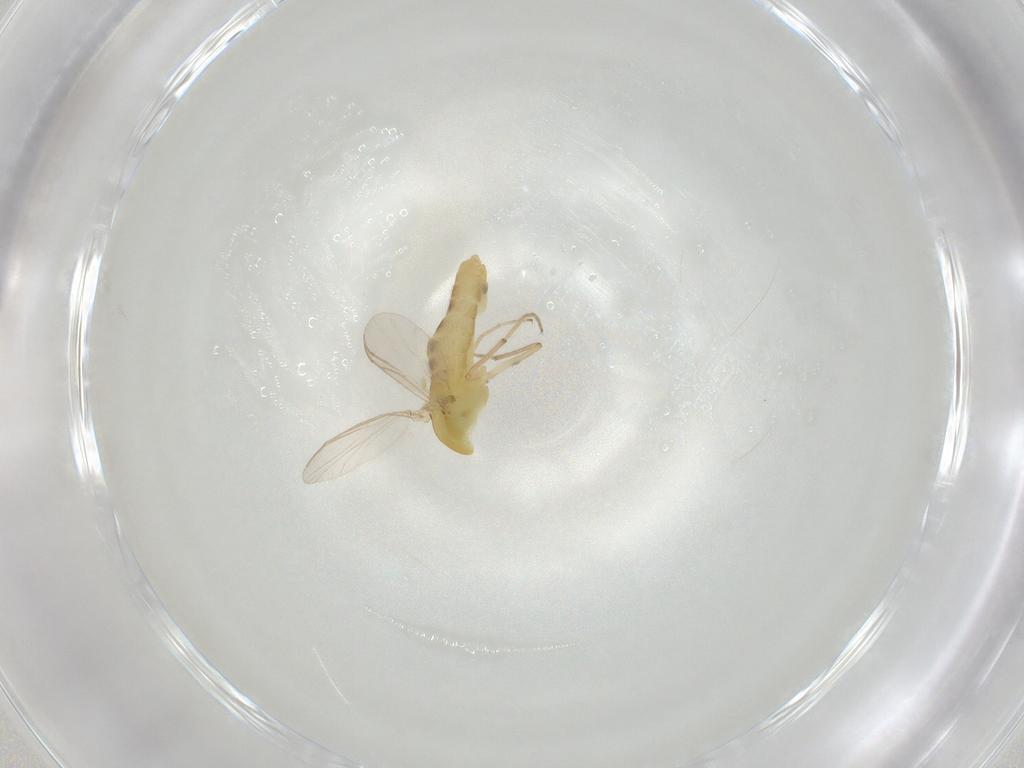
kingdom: Animalia
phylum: Arthropoda
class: Insecta
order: Diptera
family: Chironomidae
